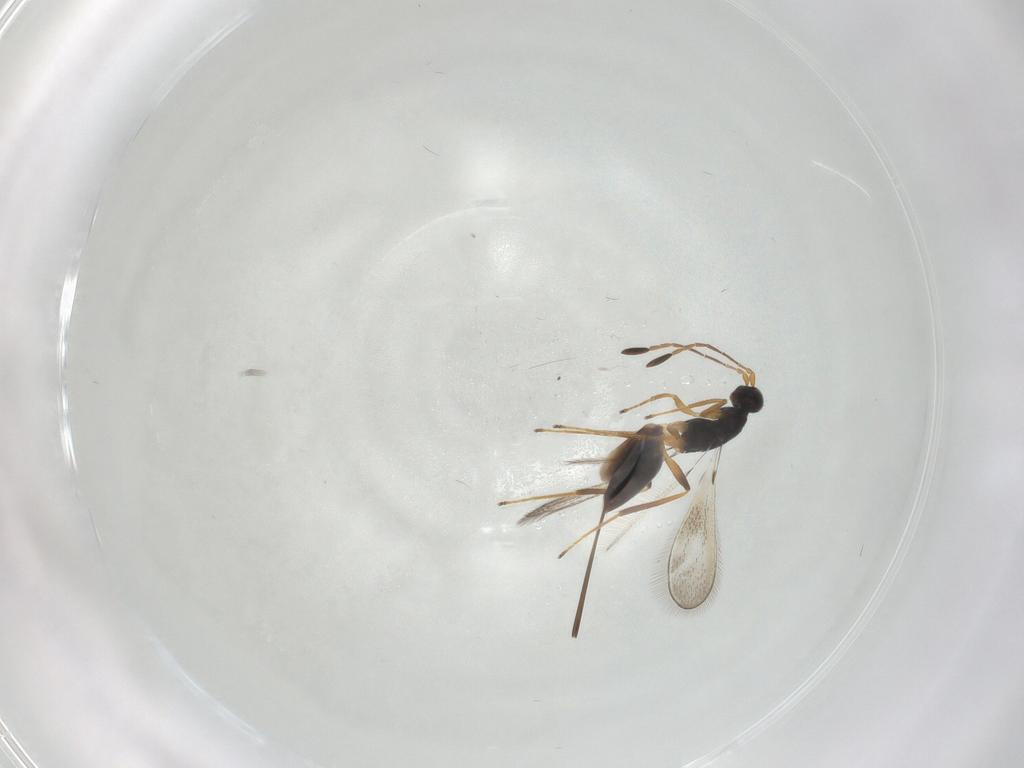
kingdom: Animalia
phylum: Arthropoda
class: Insecta
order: Hymenoptera
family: Mymaridae
